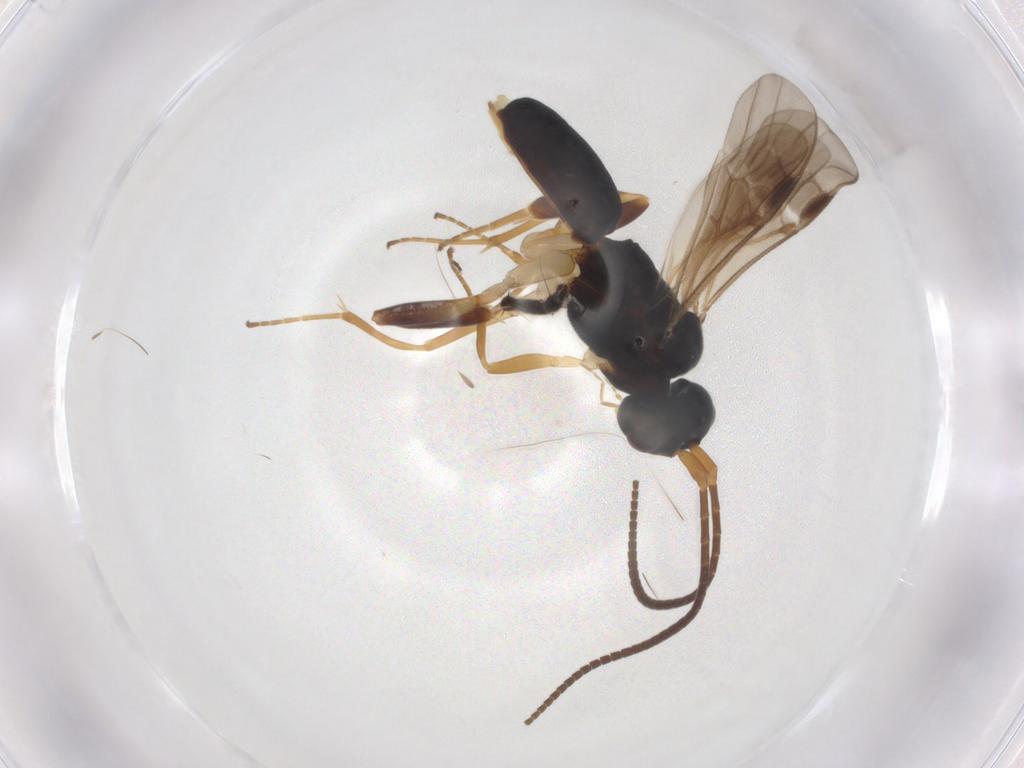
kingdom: Animalia
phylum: Arthropoda
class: Insecta
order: Hymenoptera
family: Braconidae
